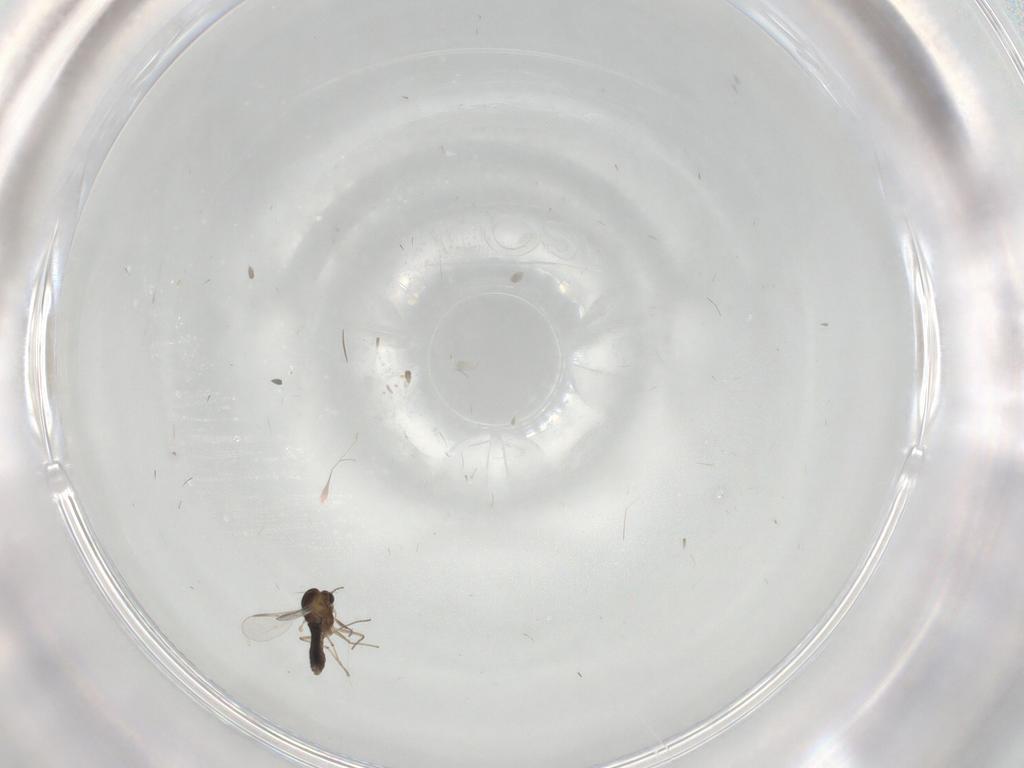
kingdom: Animalia
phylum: Arthropoda
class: Insecta
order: Diptera
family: Chironomidae
